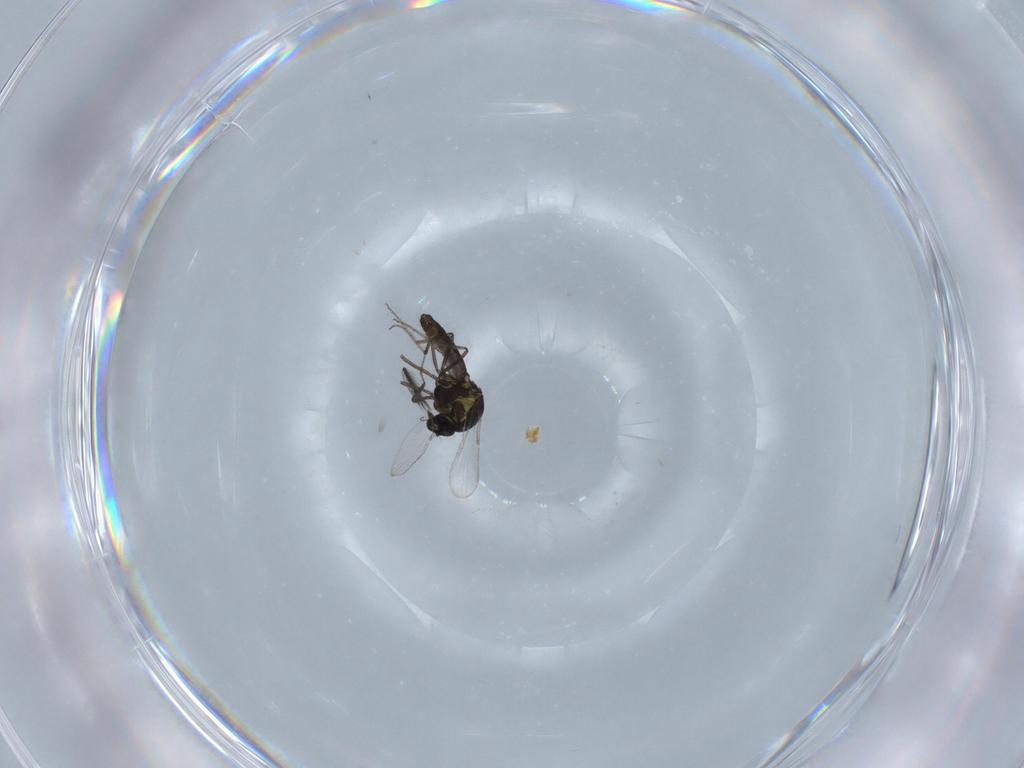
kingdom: Animalia
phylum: Arthropoda
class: Insecta
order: Diptera
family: Ceratopogonidae
